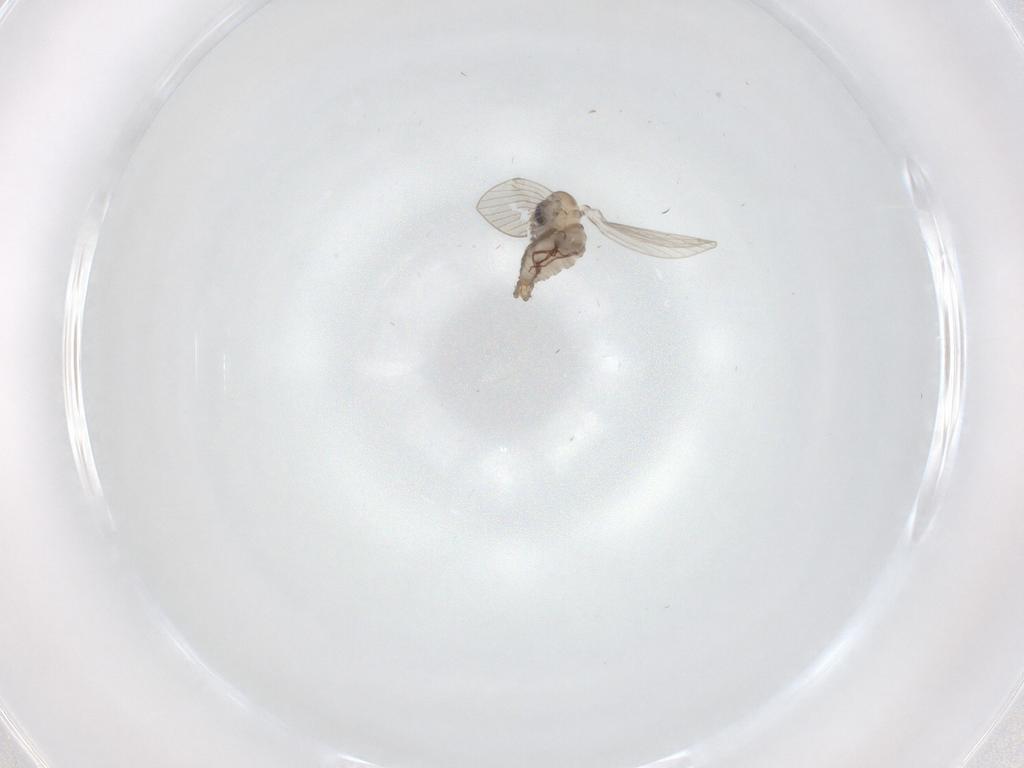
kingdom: Animalia
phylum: Arthropoda
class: Insecta
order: Diptera
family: Psychodidae
